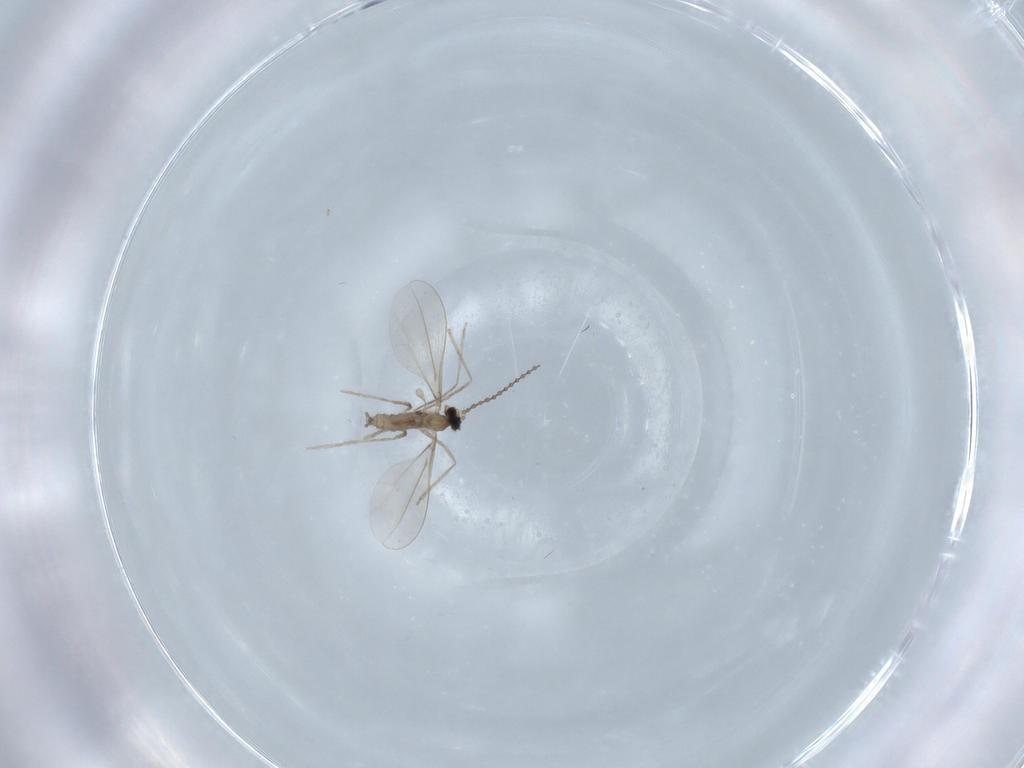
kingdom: Animalia
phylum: Arthropoda
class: Insecta
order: Diptera
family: Cecidomyiidae
